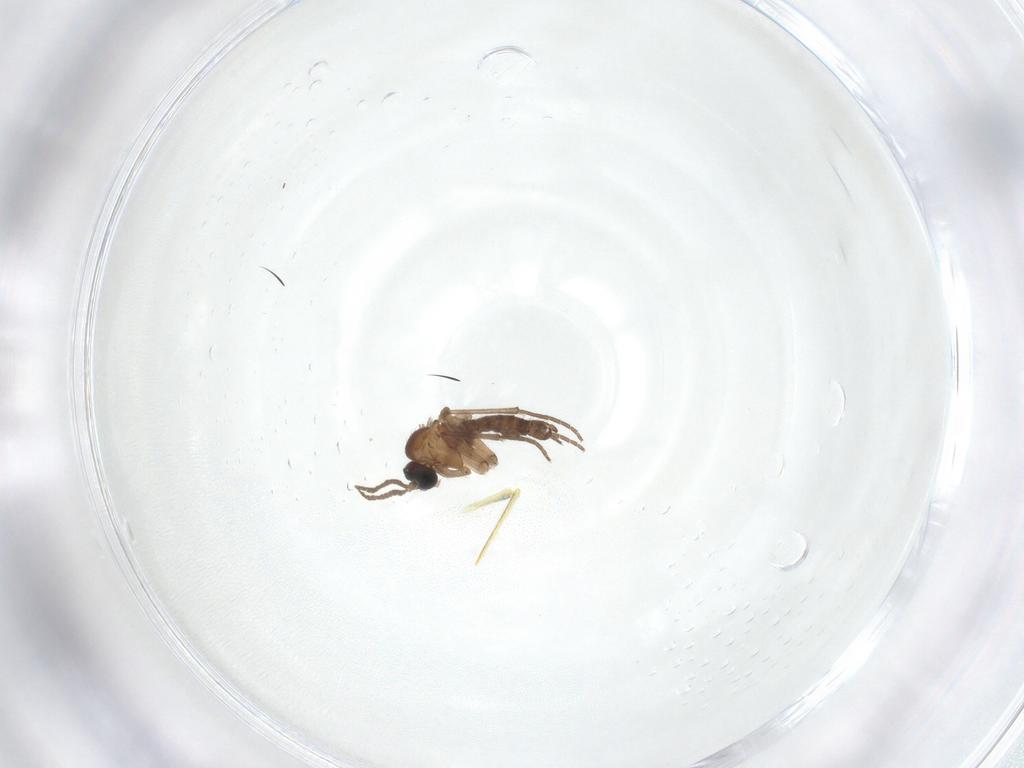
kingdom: Animalia
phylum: Arthropoda
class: Insecta
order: Diptera
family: Sciaridae
